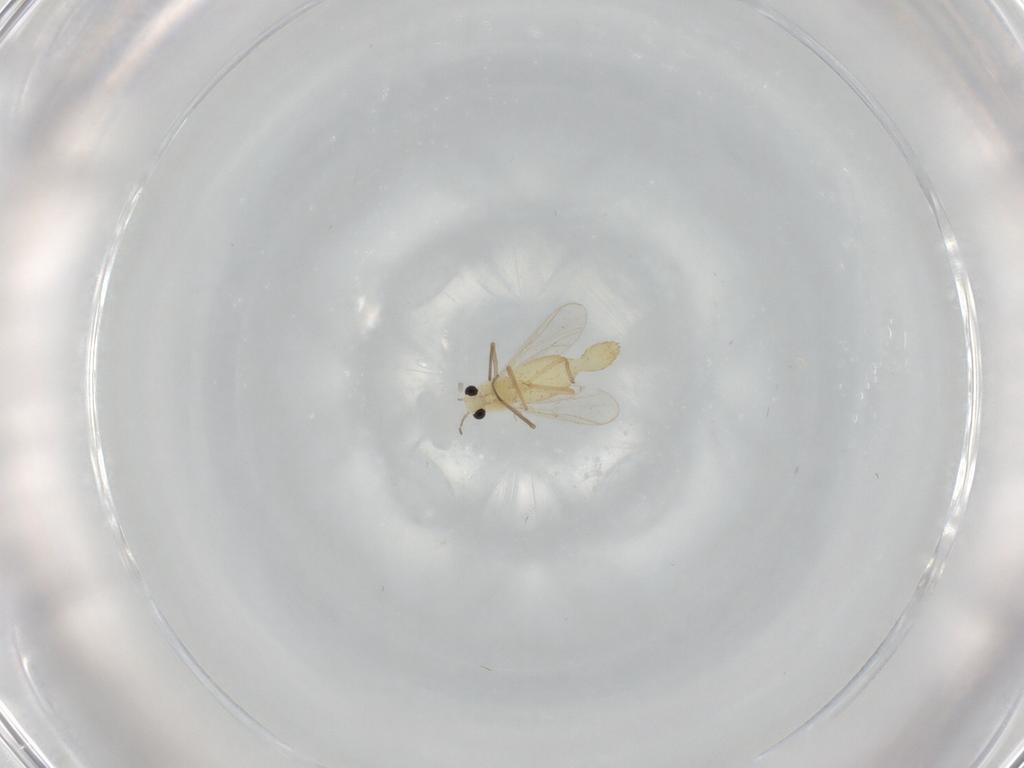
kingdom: Animalia
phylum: Arthropoda
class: Insecta
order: Diptera
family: Chironomidae
